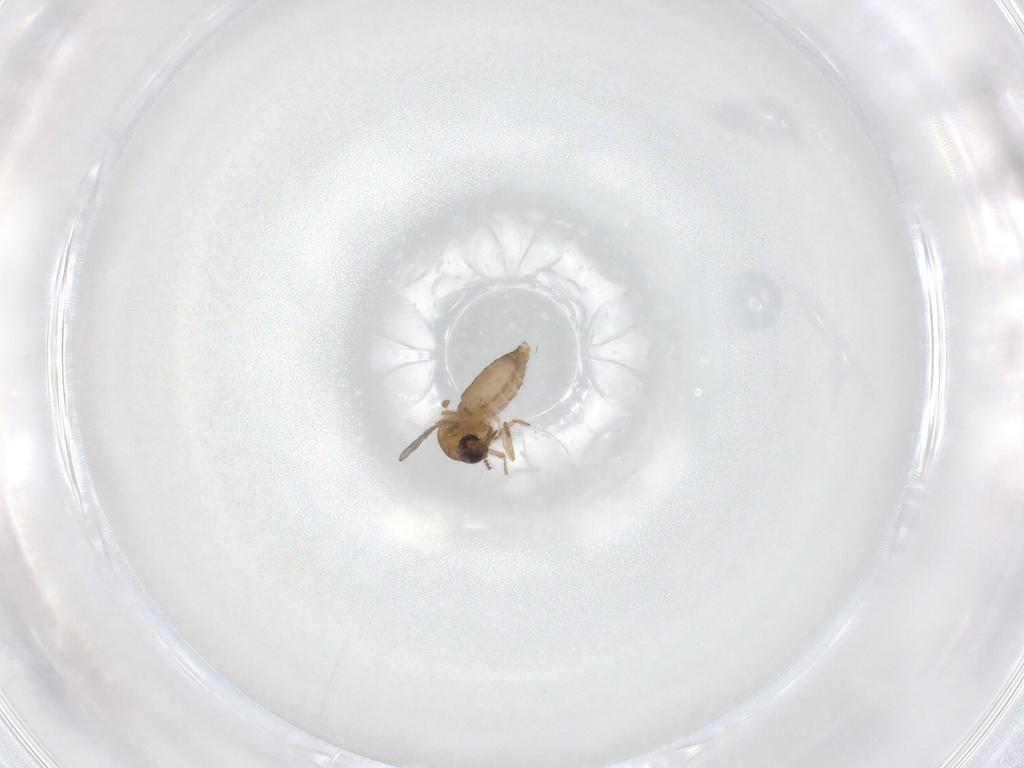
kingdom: Animalia
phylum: Arthropoda
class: Insecta
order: Diptera
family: Ceratopogonidae
